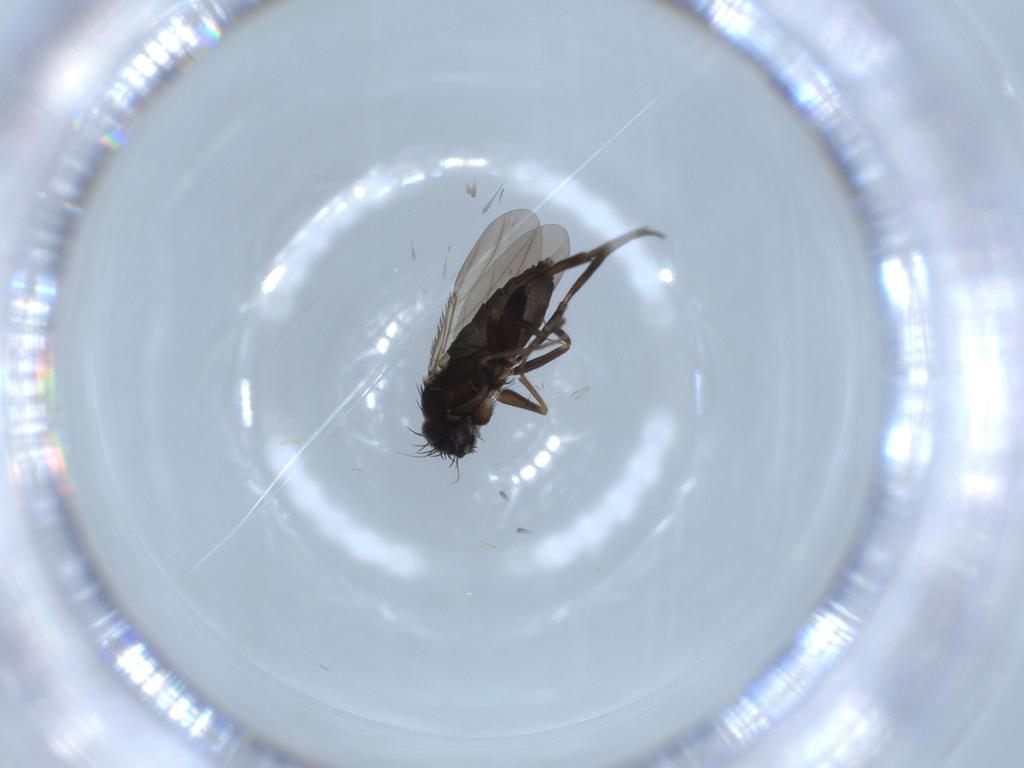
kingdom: Animalia
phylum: Arthropoda
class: Insecta
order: Diptera
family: Phoridae
